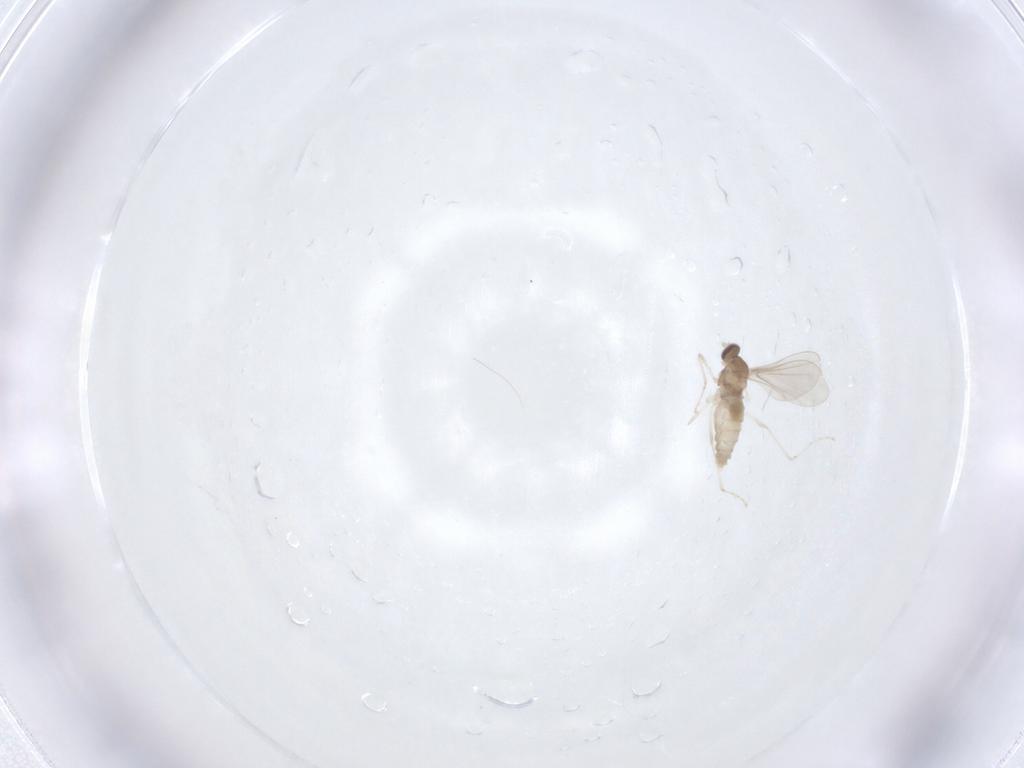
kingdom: Animalia
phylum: Arthropoda
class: Insecta
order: Diptera
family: Cecidomyiidae
